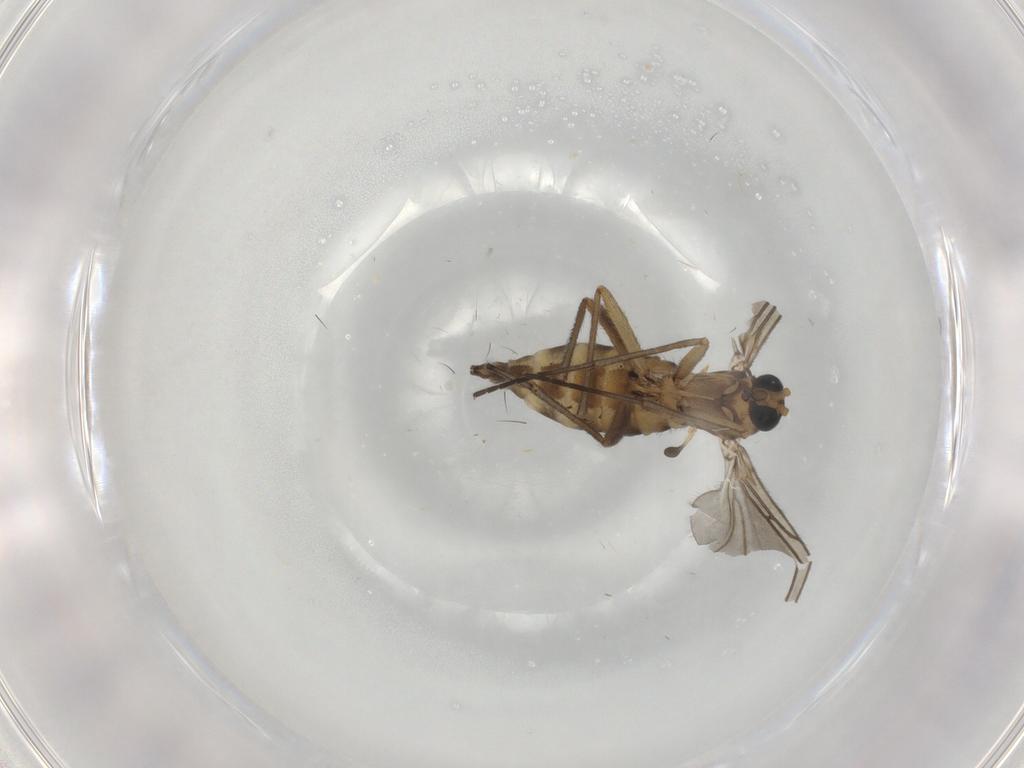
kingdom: Animalia
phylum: Arthropoda
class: Insecta
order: Diptera
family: Sciaridae
